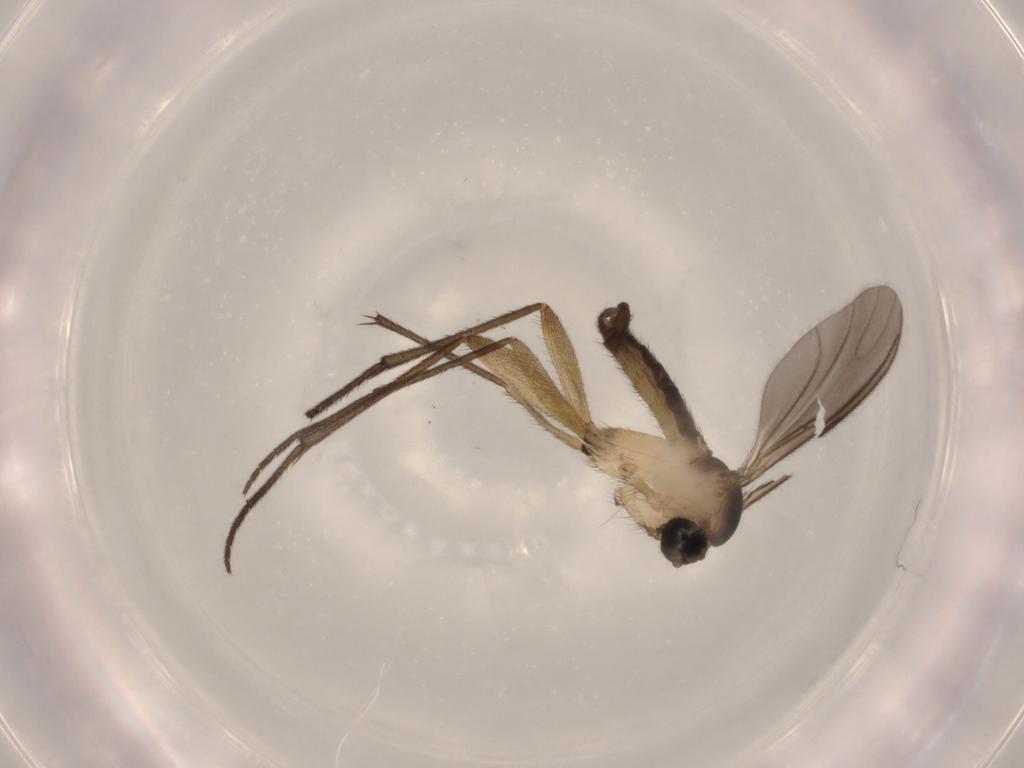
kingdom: Animalia
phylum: Arthropoda
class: Insecta
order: Diptera
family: Sciaridae
